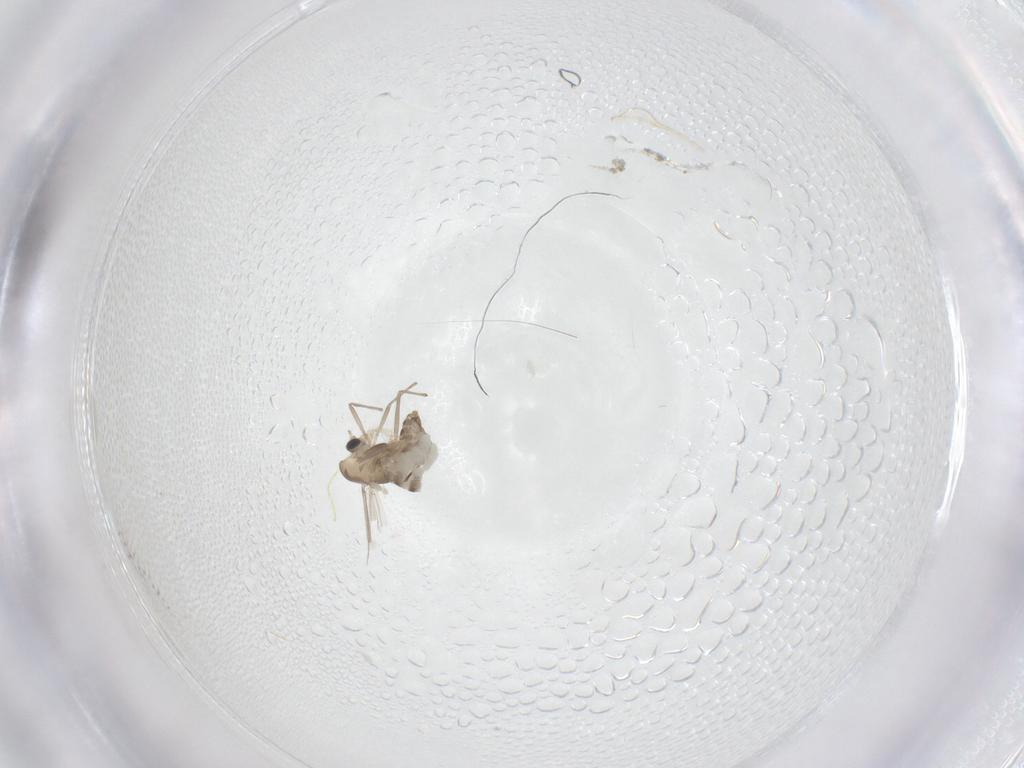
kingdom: Animalia
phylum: Arthropoda
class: Insecta
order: Diptera
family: Chironomidae
